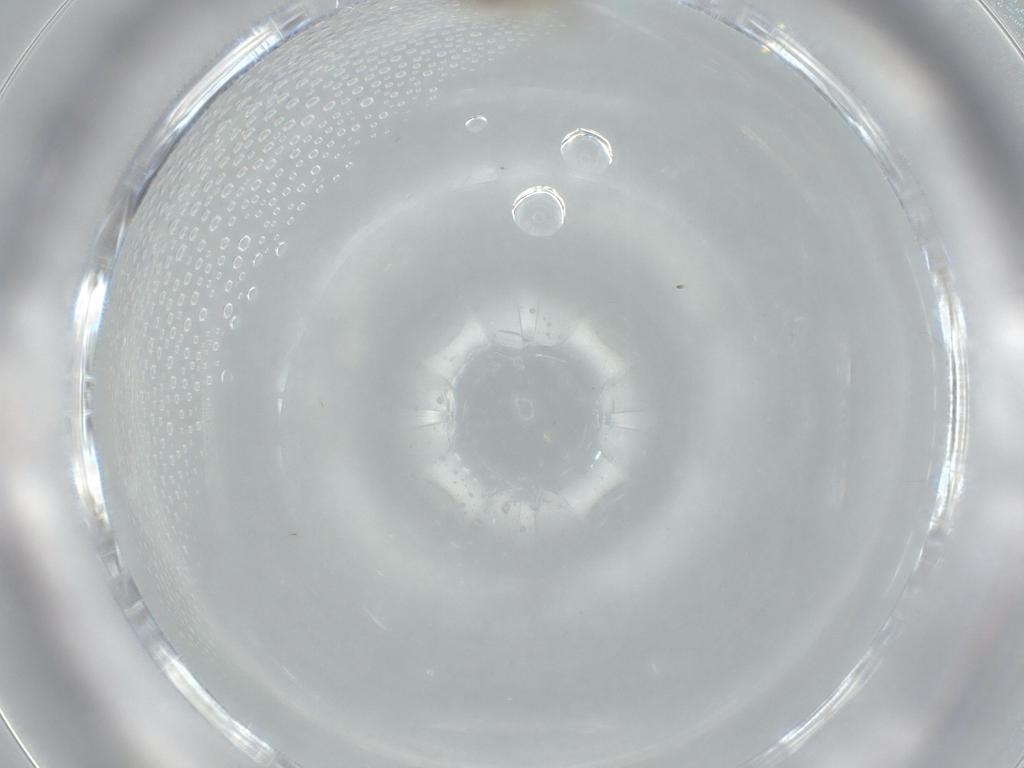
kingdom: Animalia
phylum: Arthropoda
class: Insecta
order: Psocodea
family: Lachesillidae
